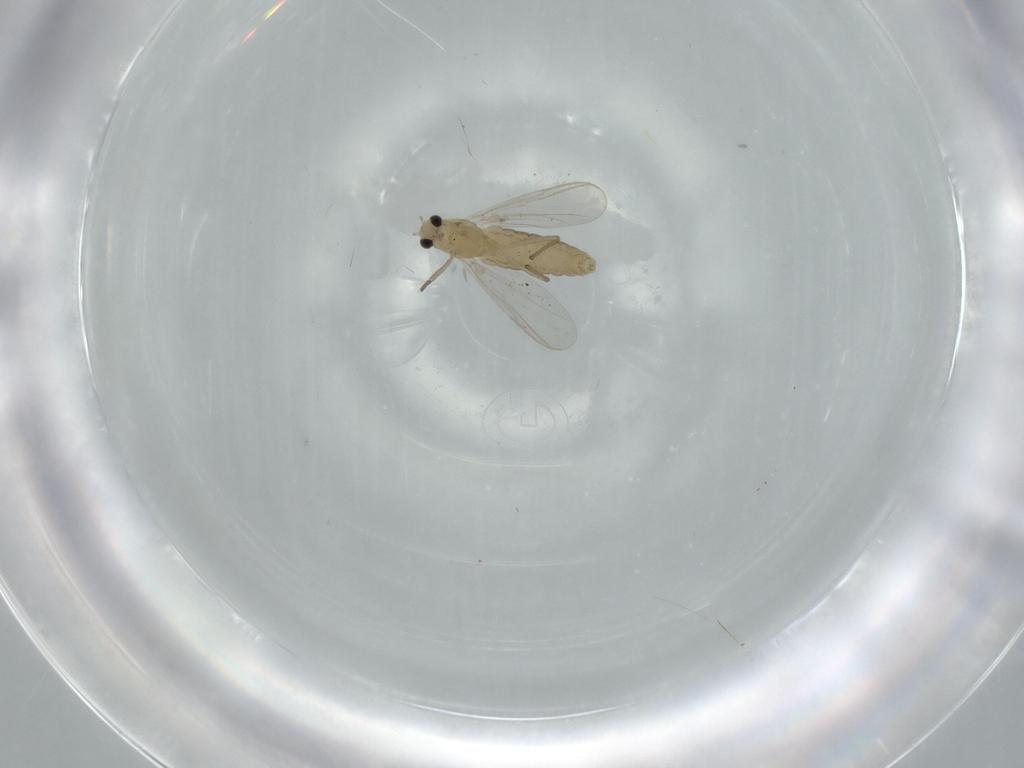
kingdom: Animalia
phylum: Arthropoda
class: Insecta
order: Diptera
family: Chironomidae
